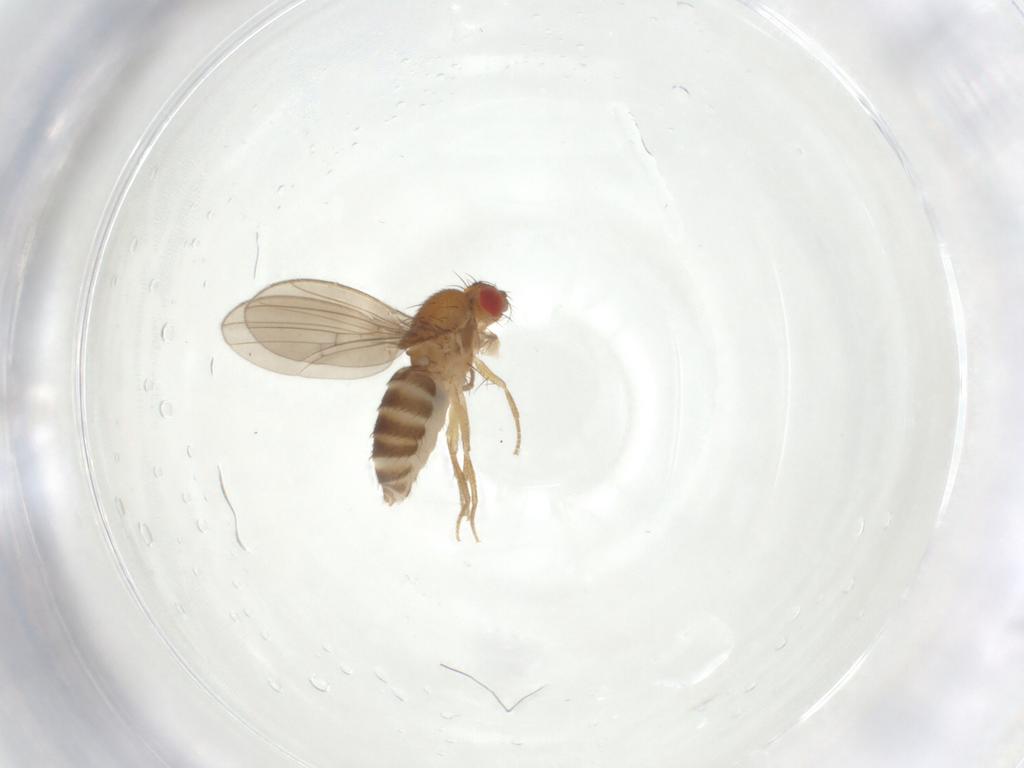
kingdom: Animalia
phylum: Arthropoda
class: Insecta
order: Diptera
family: Drosophilidae
